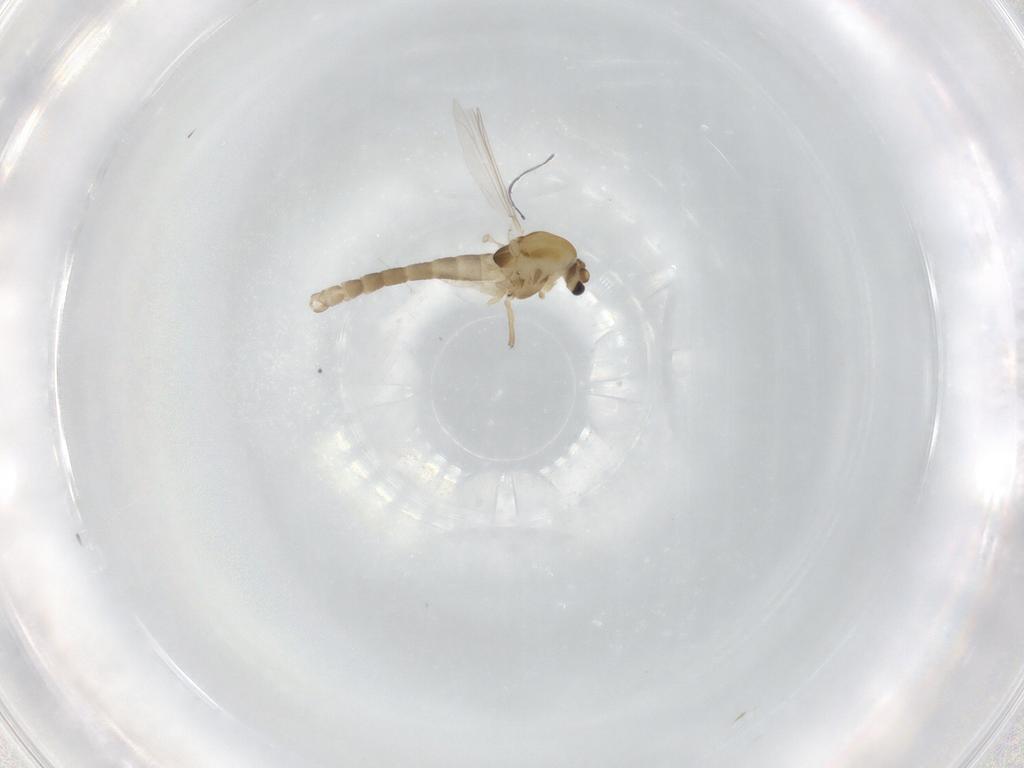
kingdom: Animalia
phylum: Arthropoda
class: Insecta
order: Diptera
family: Chironomidae
